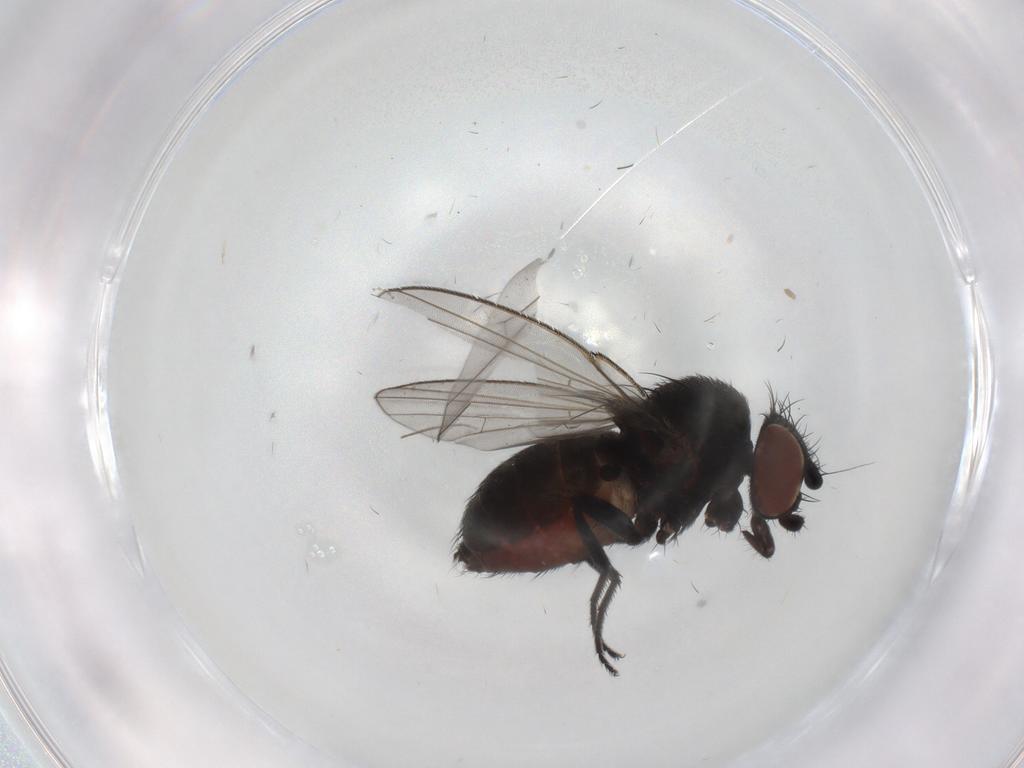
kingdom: Animalia
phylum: Arthropoda
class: Insecta
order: Diptera
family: Milichiidae
